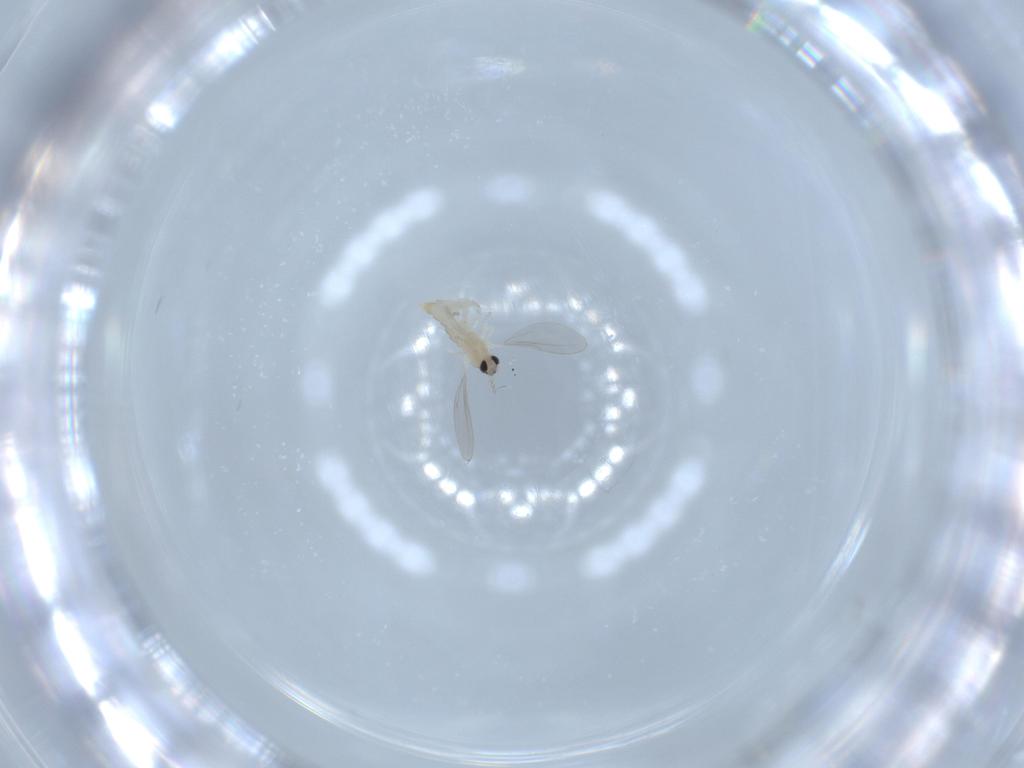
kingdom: Animalia
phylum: Arthropoda
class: Insecta
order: Diptera
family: Cecidomyiidae
